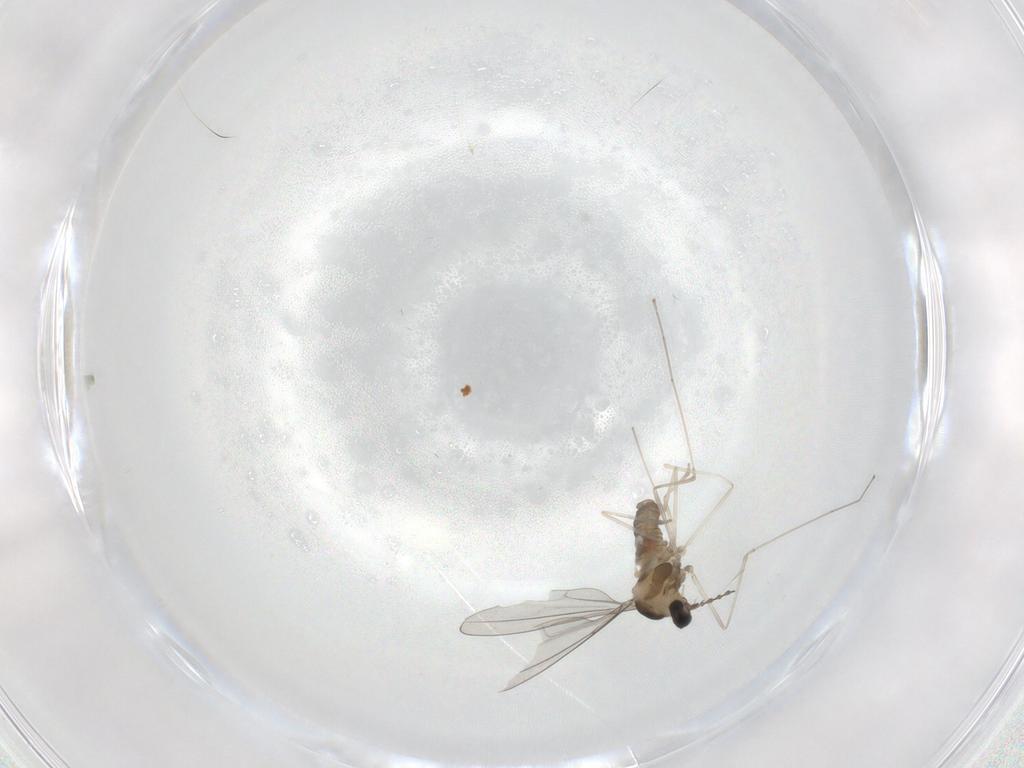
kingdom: Animalia
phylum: Arthropoda
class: Insecta
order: Diptera
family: Cecidomyiidae
